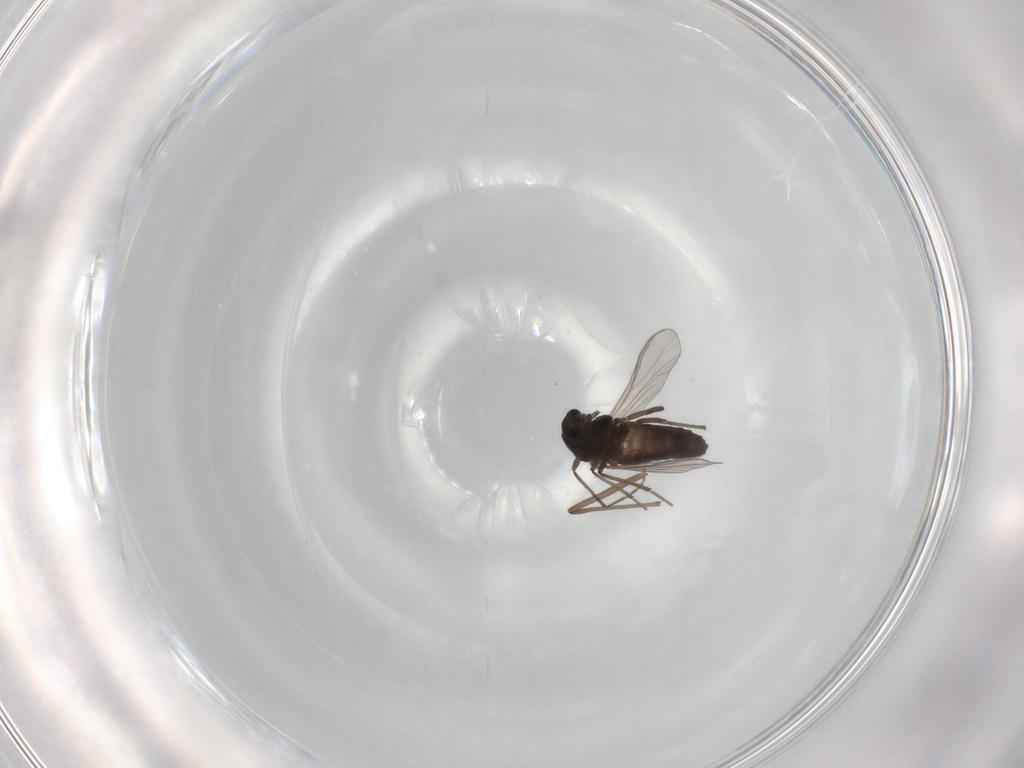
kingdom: Animalia
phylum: Arthropoda
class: Insecta
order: Diptera
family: Chironomidae
